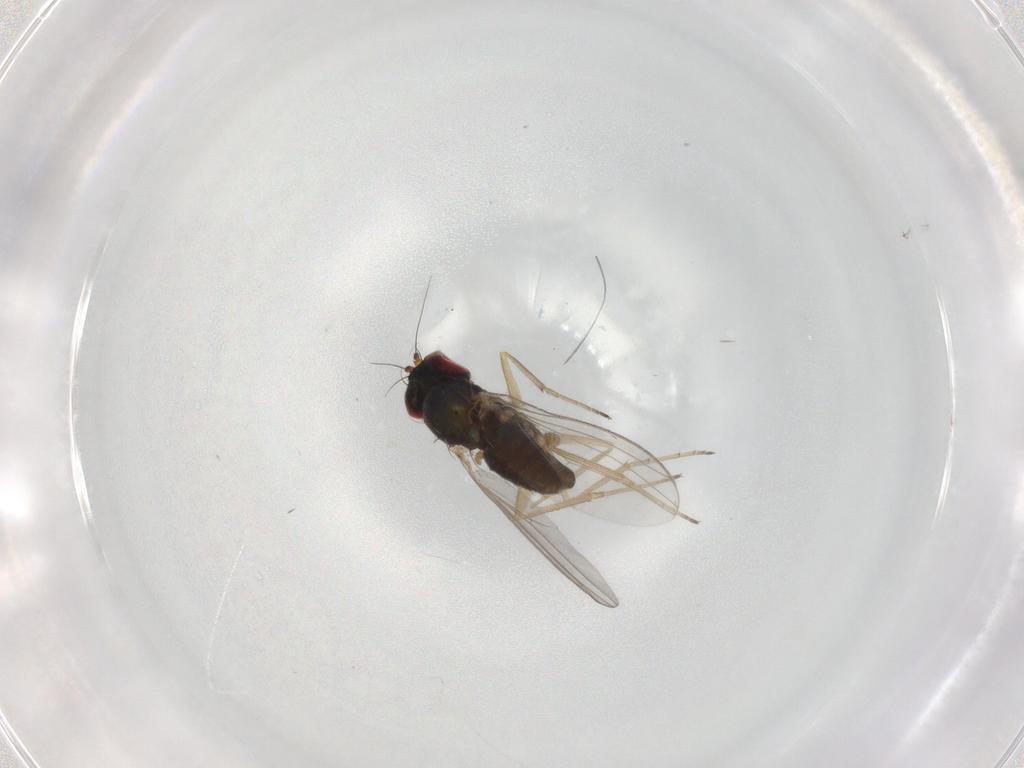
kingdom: Animalia
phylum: Arthropoda
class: Insecta
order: Diptera
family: Dolichopodidae
